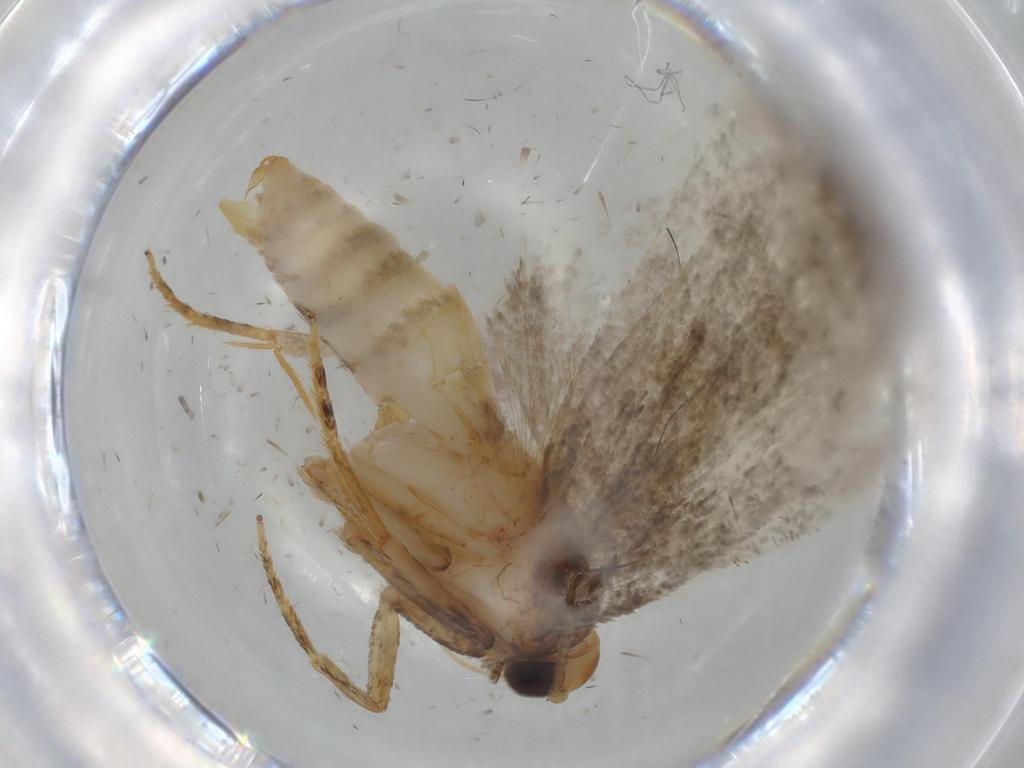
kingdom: Animalia
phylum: Arthropoda
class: Insecta
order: Lepidoptera
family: Oecophoridae
